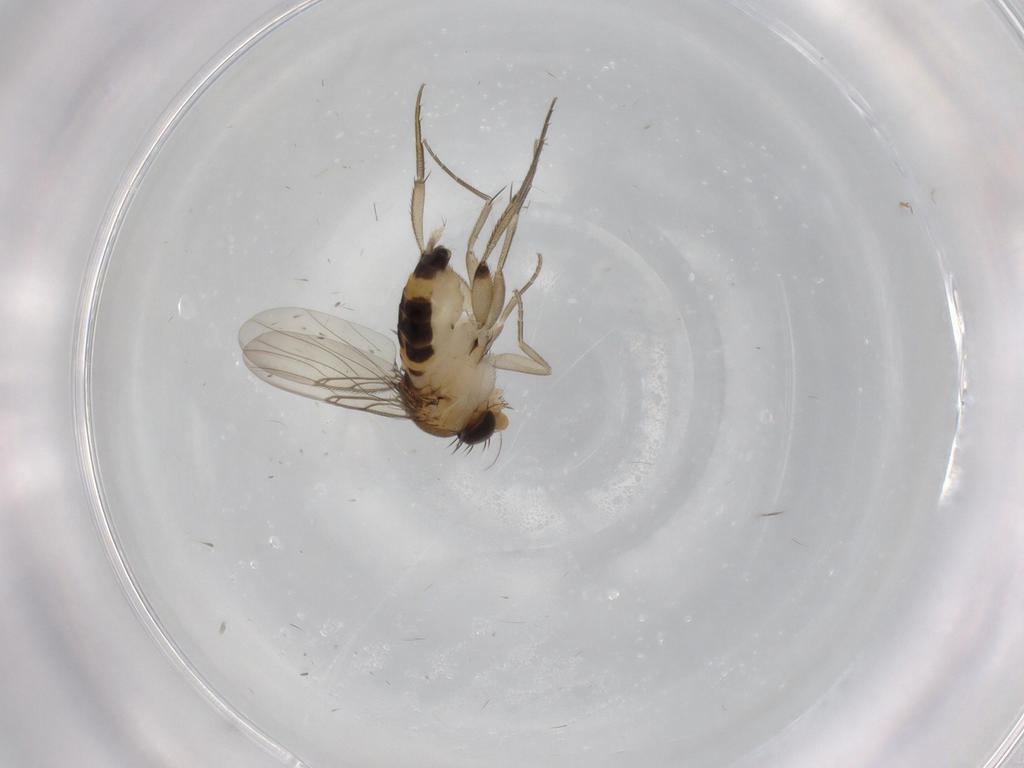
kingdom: Animalia
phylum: Arthropoda
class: Insecta
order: Diptera
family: Phoridae
